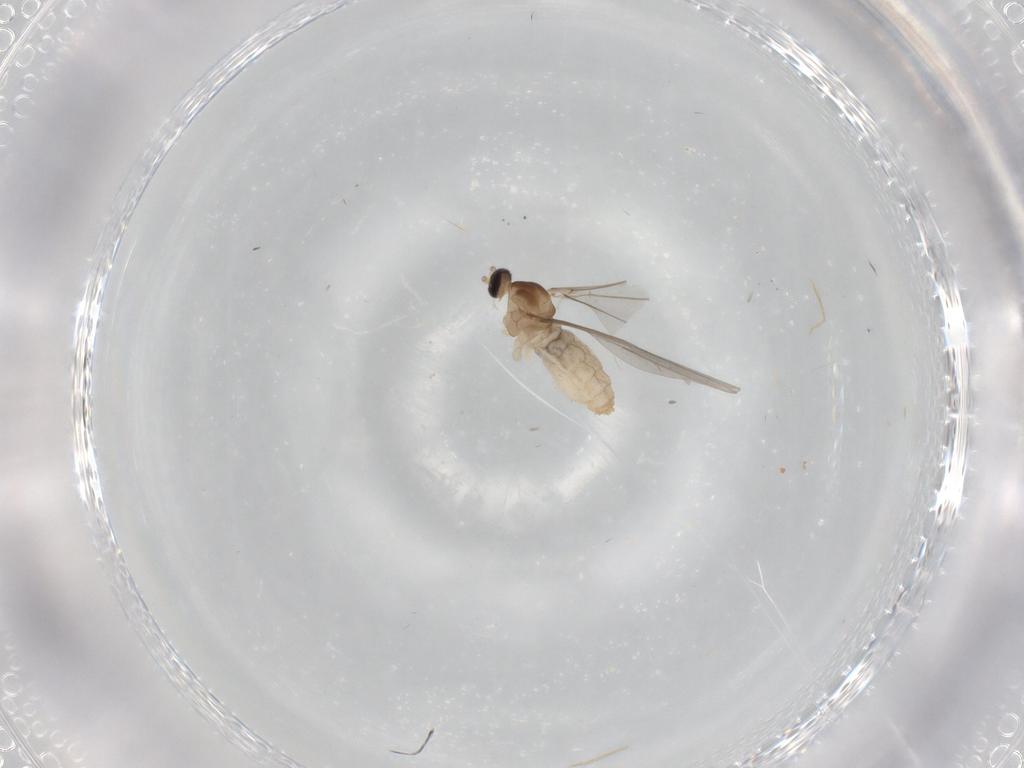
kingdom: Animalia
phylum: Arthropoda
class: Insecta
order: Diptera
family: Cecidomyiidae
